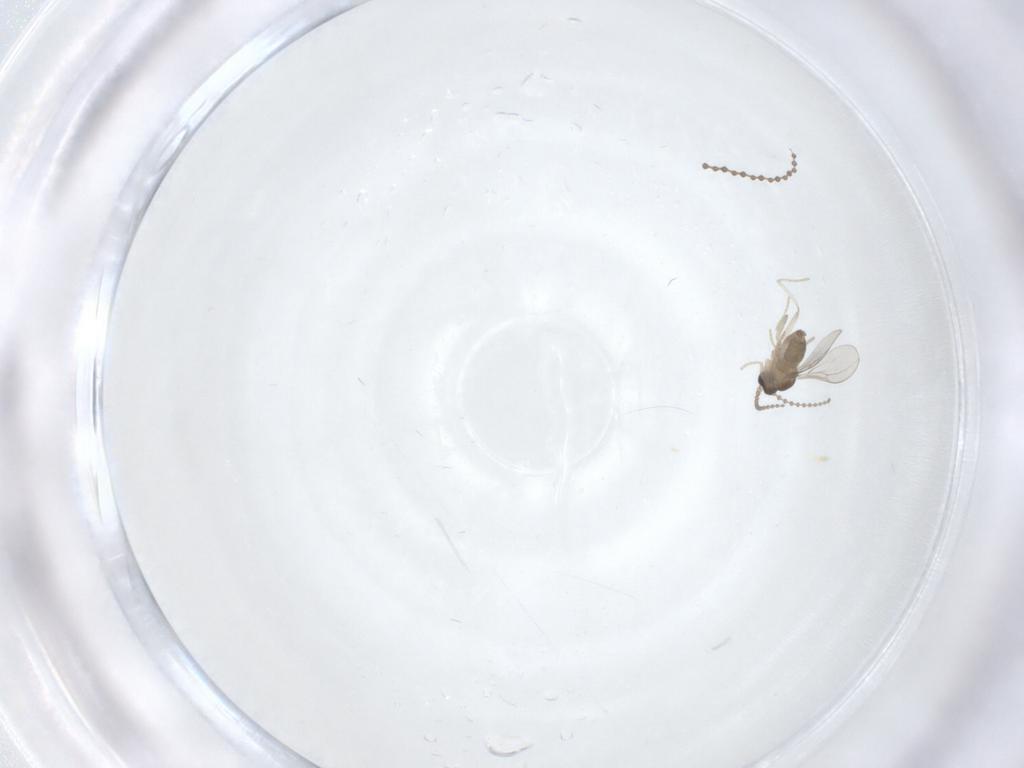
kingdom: Animalia
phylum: Arthropoda
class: Insecta
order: Diptera
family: Cecidomyiidae
